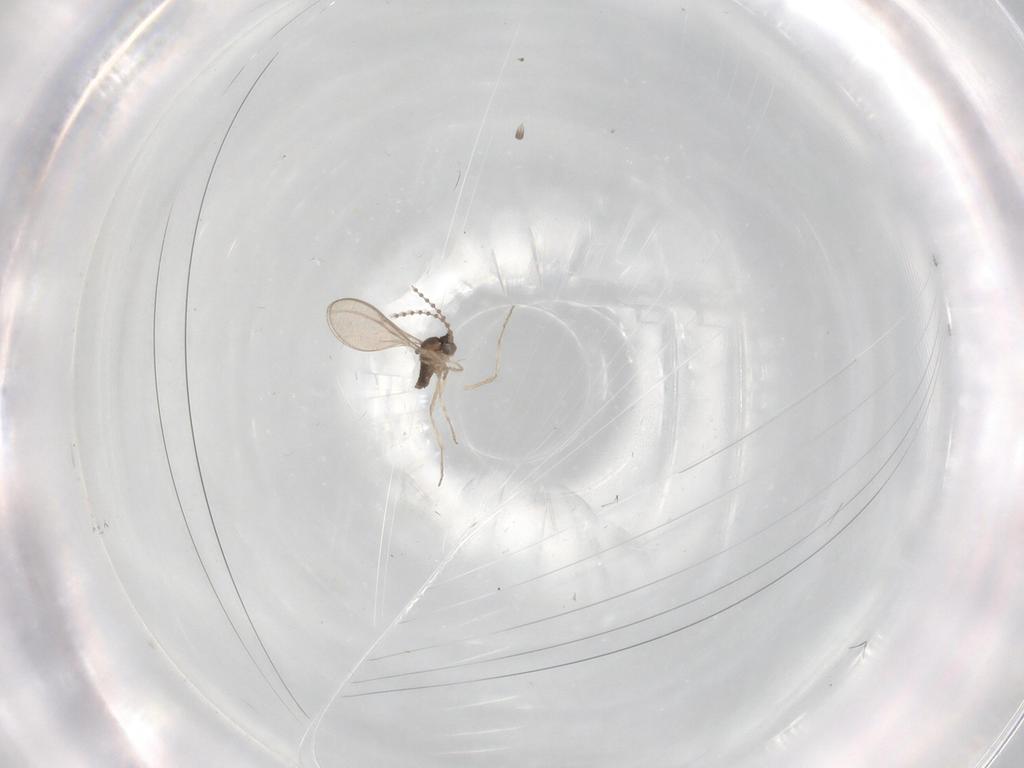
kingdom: Animalia
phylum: Arthropoda
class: Insecta
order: Diptera
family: Cecidomyiidae
